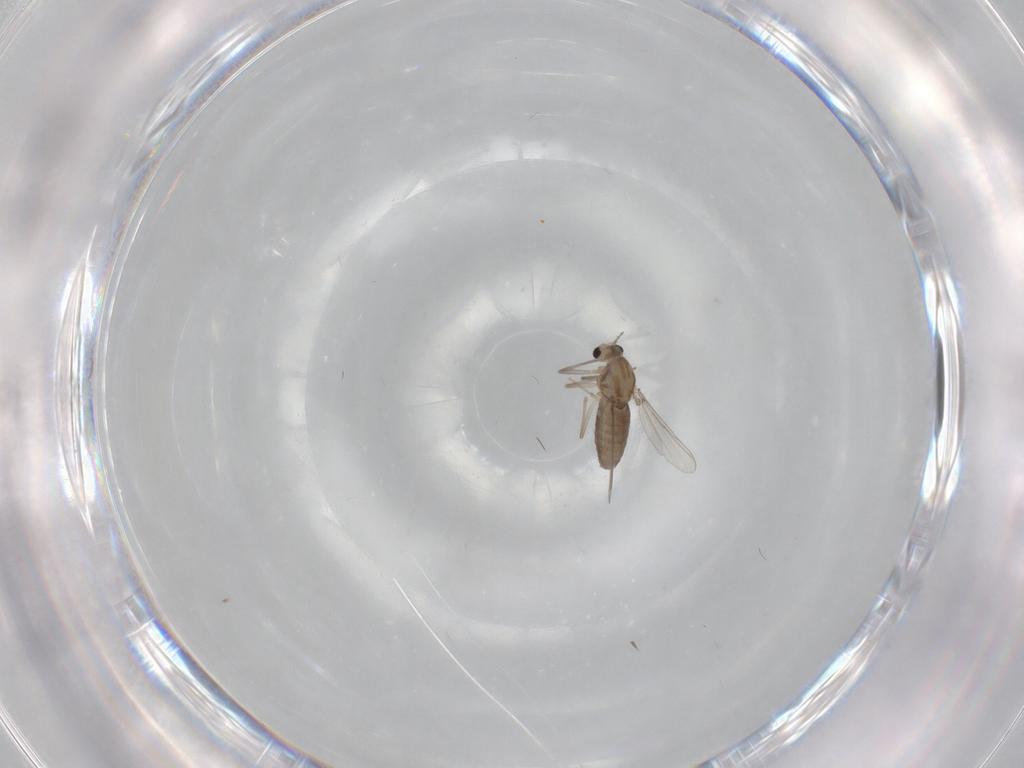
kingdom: Animalia
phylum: Arthropoda
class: Insecta
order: Diptera
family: Chironomidae
